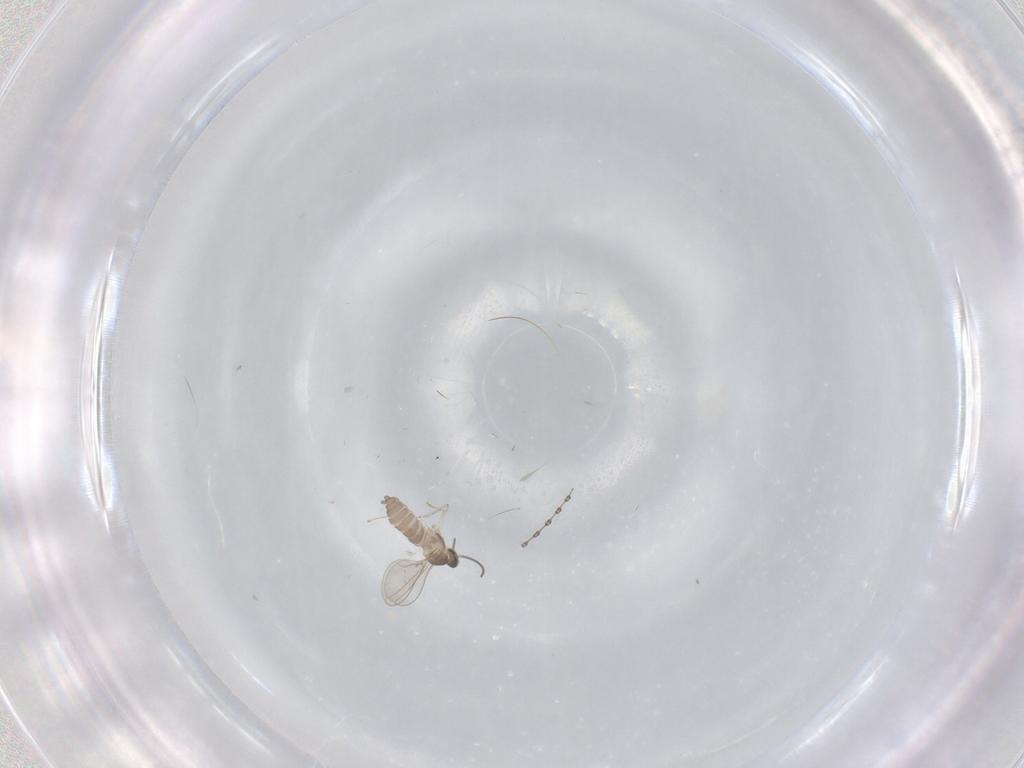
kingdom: Animalia
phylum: Arthropoda
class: Insecta
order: Diptera
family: Cecidomyiidae
